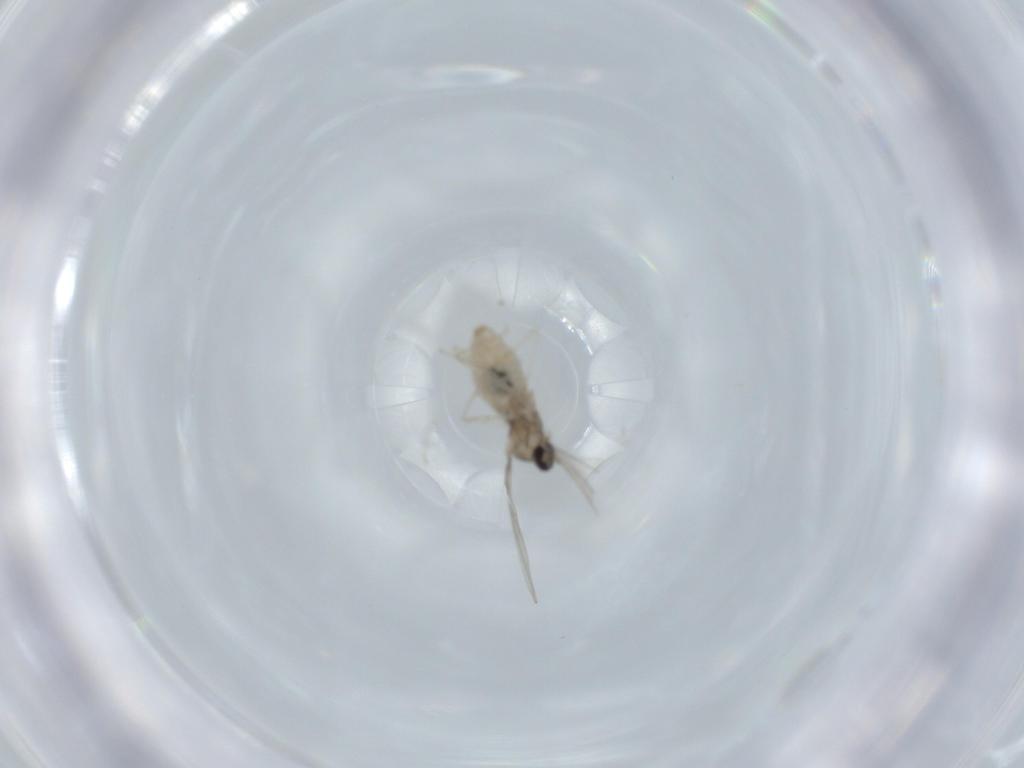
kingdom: Animalia
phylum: Arthropoda
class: Insecta
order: Diptera
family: Cecidomyiidae
